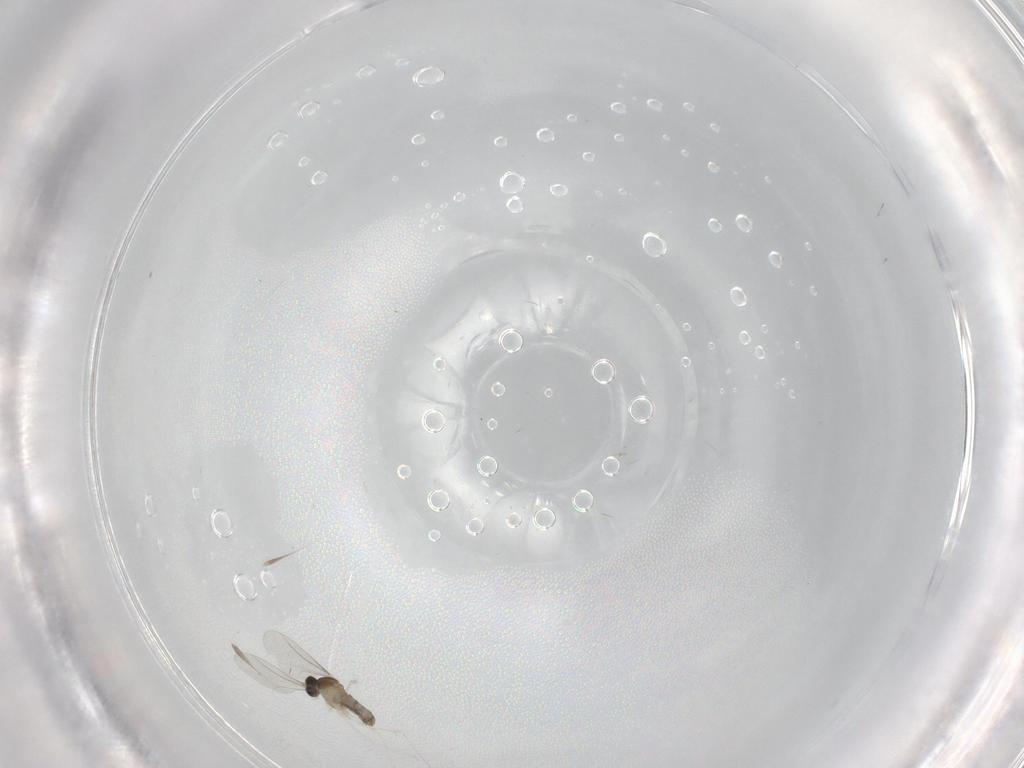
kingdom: Animalia
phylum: Arthropoda
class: Insecta
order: Diptera
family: Cecidomyiidae
